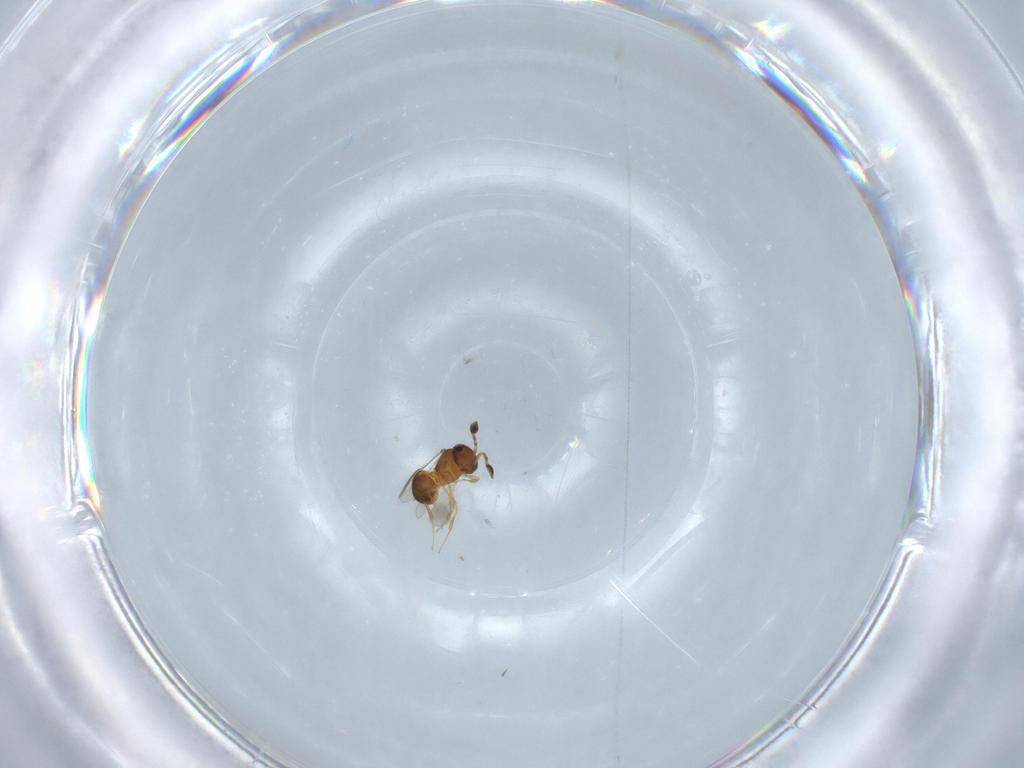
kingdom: Animalia
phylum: Arthropoda
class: Insecta
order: Hymenoptera
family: Scelionidae
